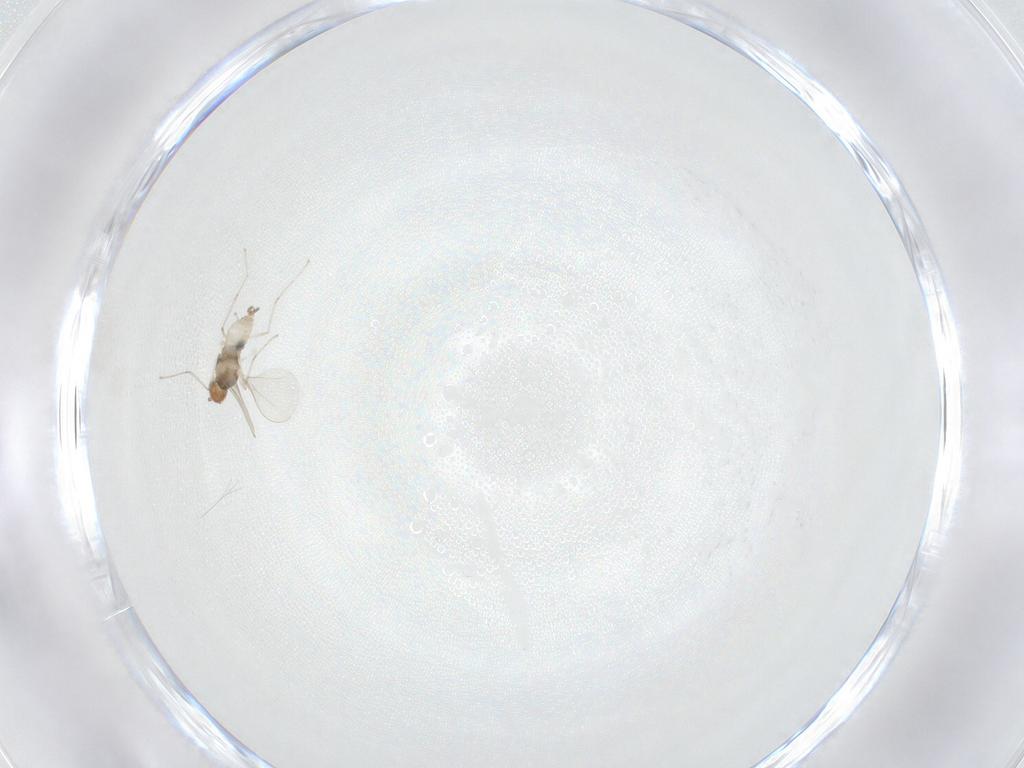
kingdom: Animalia
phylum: Arthropoda
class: Insecta
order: Diptera
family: Cecidomyiidae
